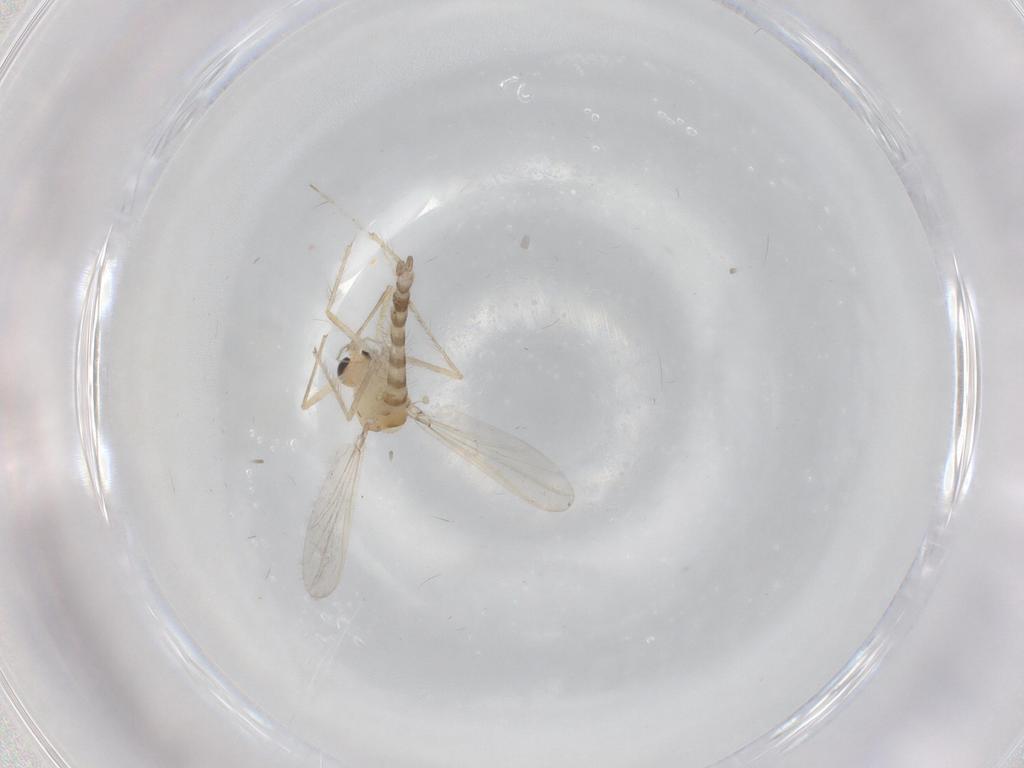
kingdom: Animalia
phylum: Arthropoda
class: Insecta
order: Diptera
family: Chironomidae
